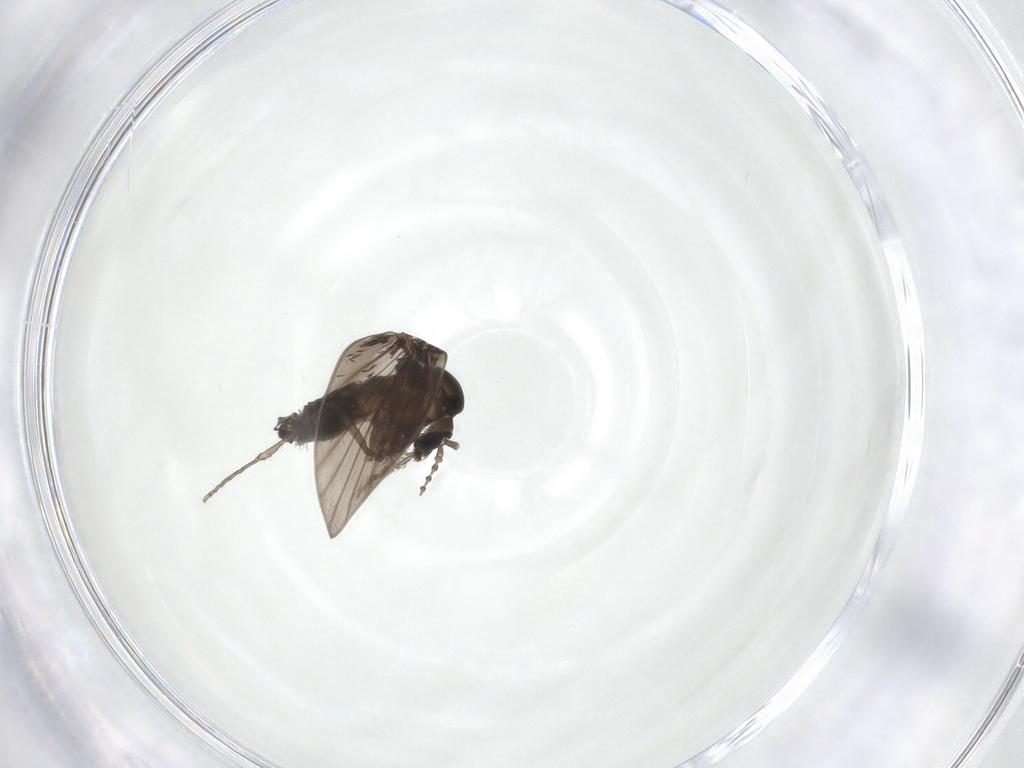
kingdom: Animalia
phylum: Arthropoda
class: Insecta
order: Diptera
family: Psychodidae
